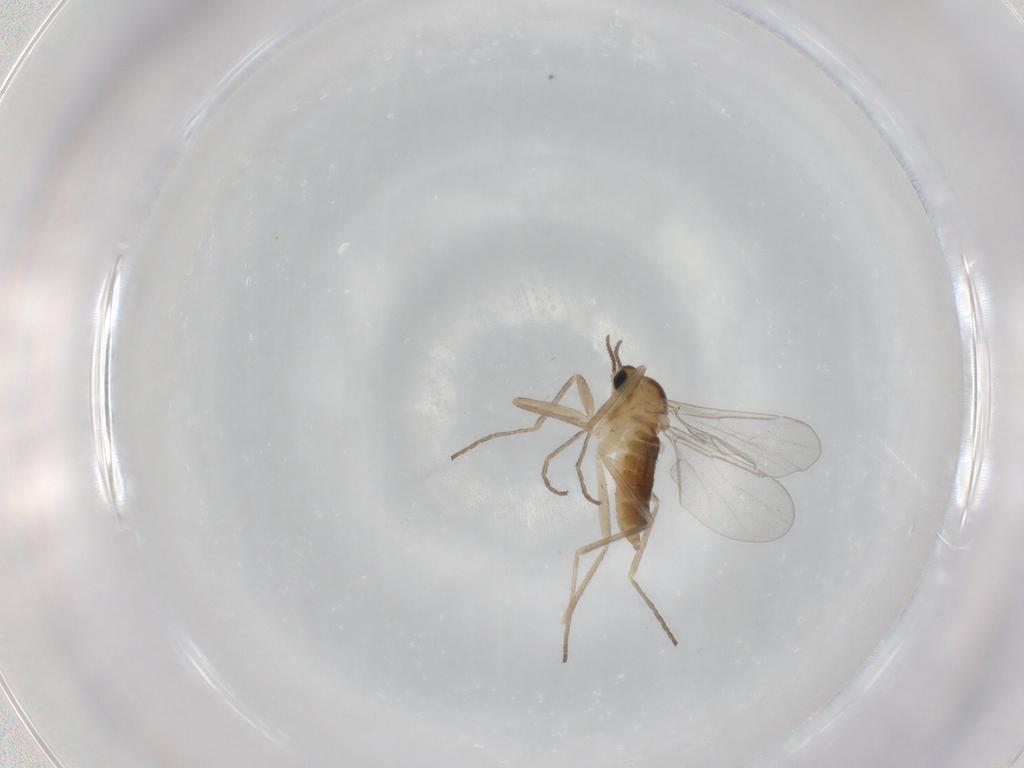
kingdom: Animalia
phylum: Arthropoda
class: Insecta
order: Diptera
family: Cecidomyiidae
